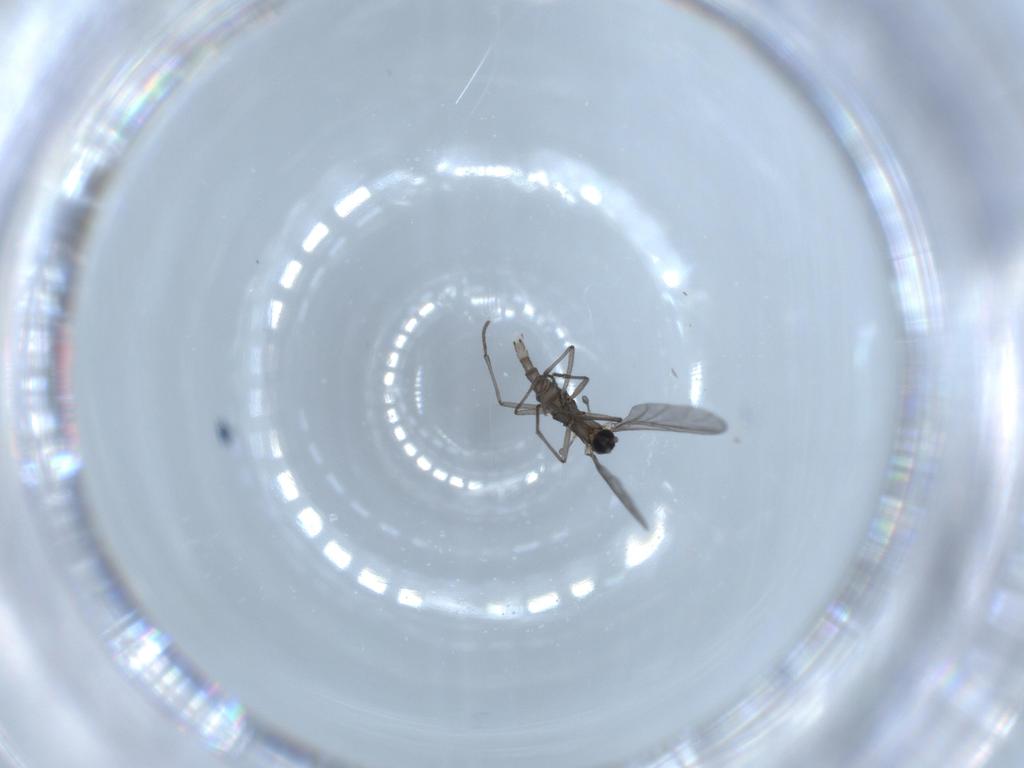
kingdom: Animalia
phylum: Arthropoda
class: Insecta
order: Diptera
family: Sciaridae
